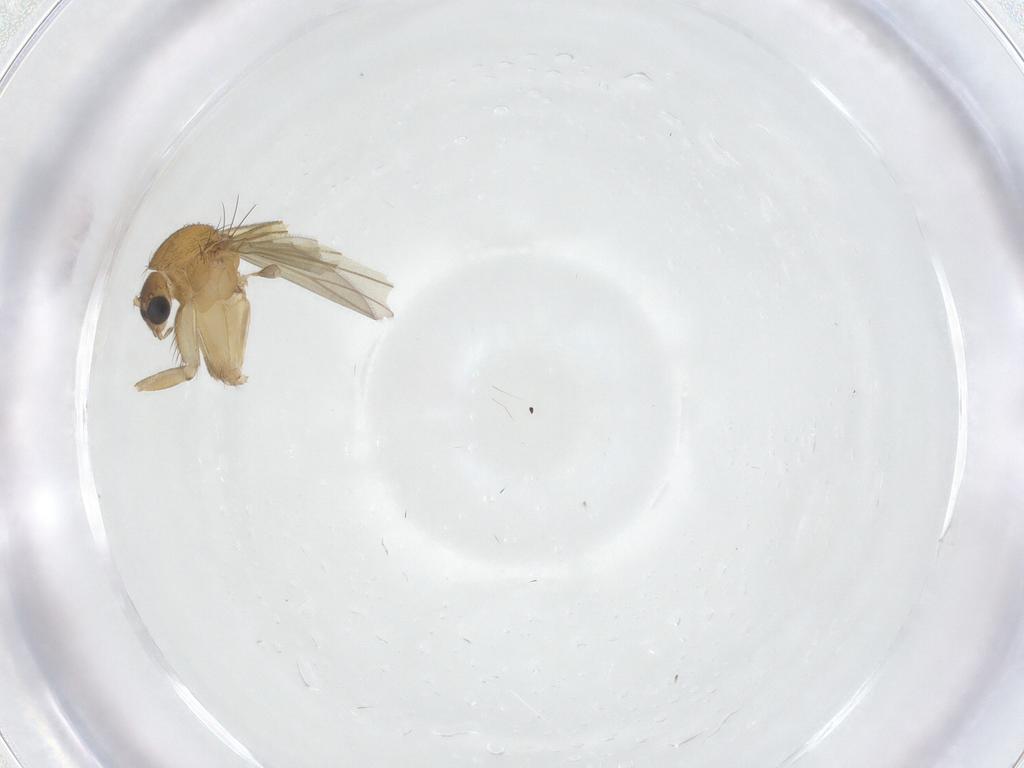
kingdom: Animalia
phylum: Arthropoda
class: Insecta
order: Diptera
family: Mycetophilidae
